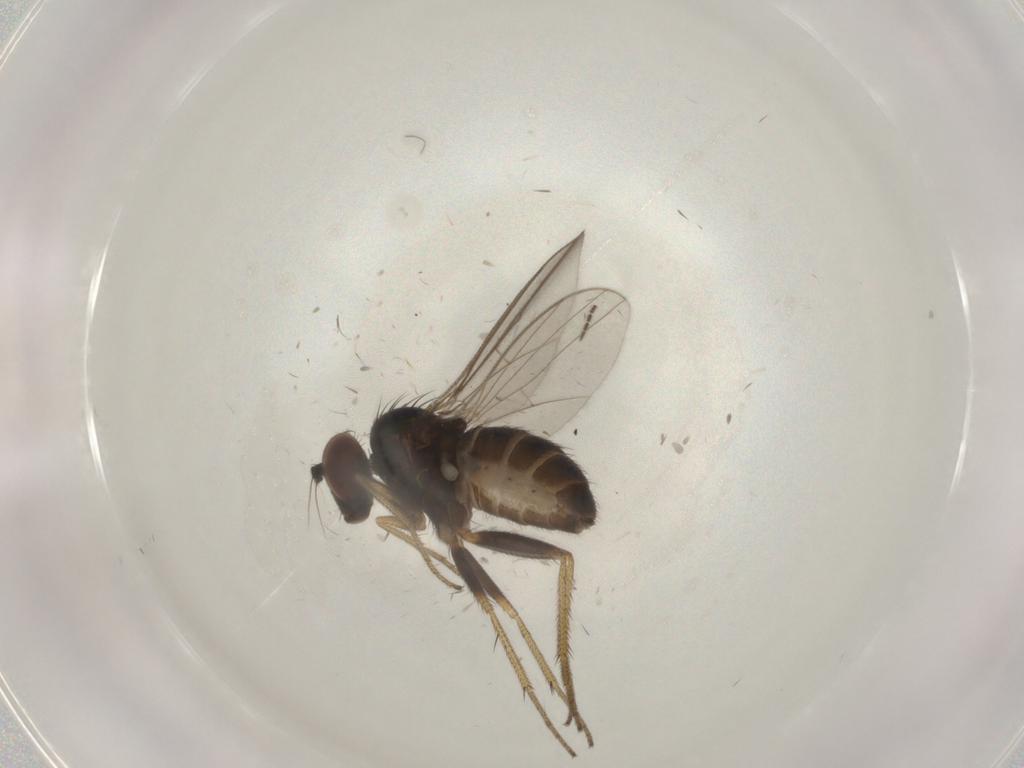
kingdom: Animalia
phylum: Arthropoda
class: Insecta
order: Diptera
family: Dolichopodidae
